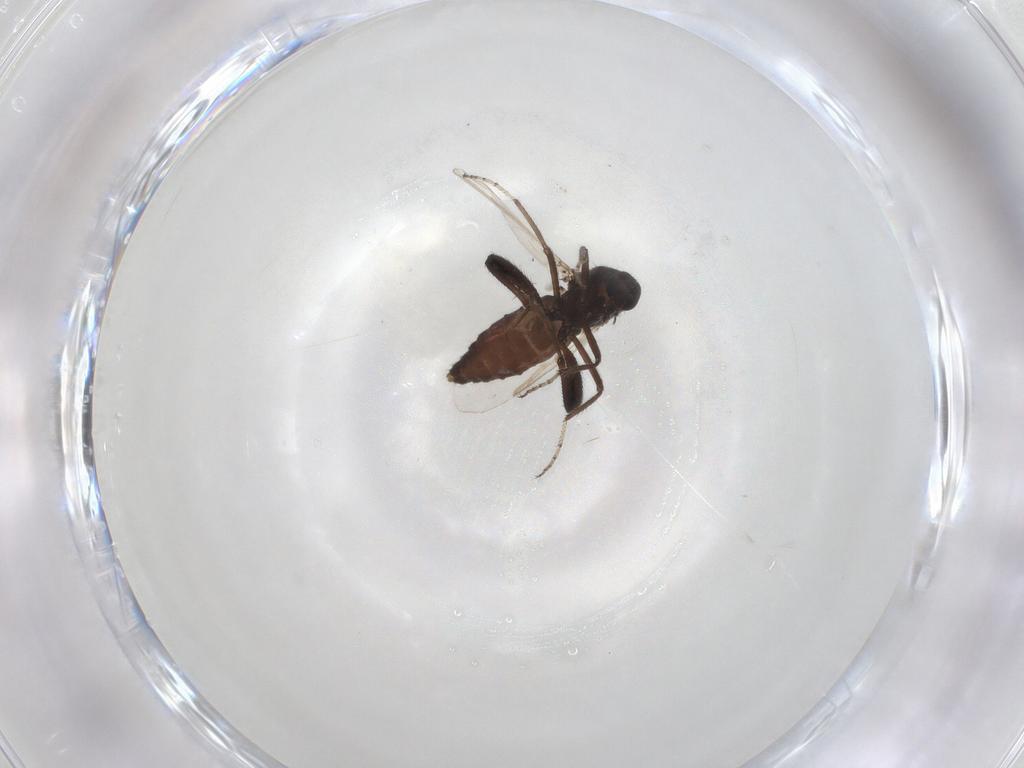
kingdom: Animalia
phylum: Arthropoda
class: Insecta
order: Diptera
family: Ceratopogonidae
